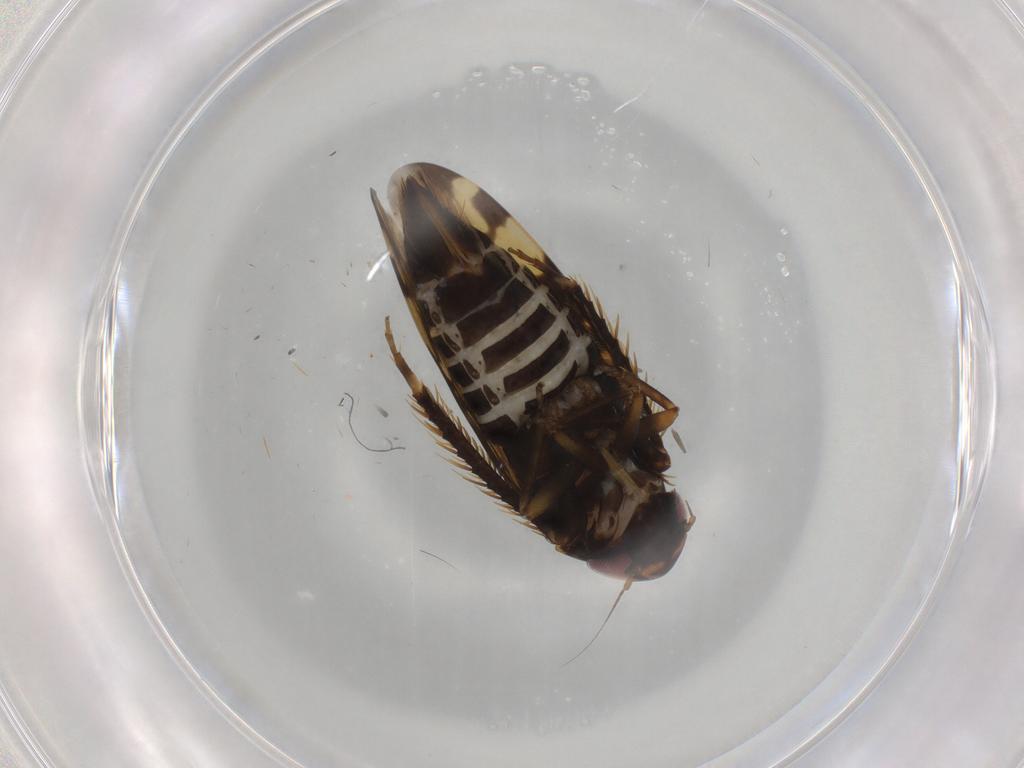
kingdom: Animalia
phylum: Arthropoda
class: Insecta
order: Hemiptera
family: Cicadellidae
